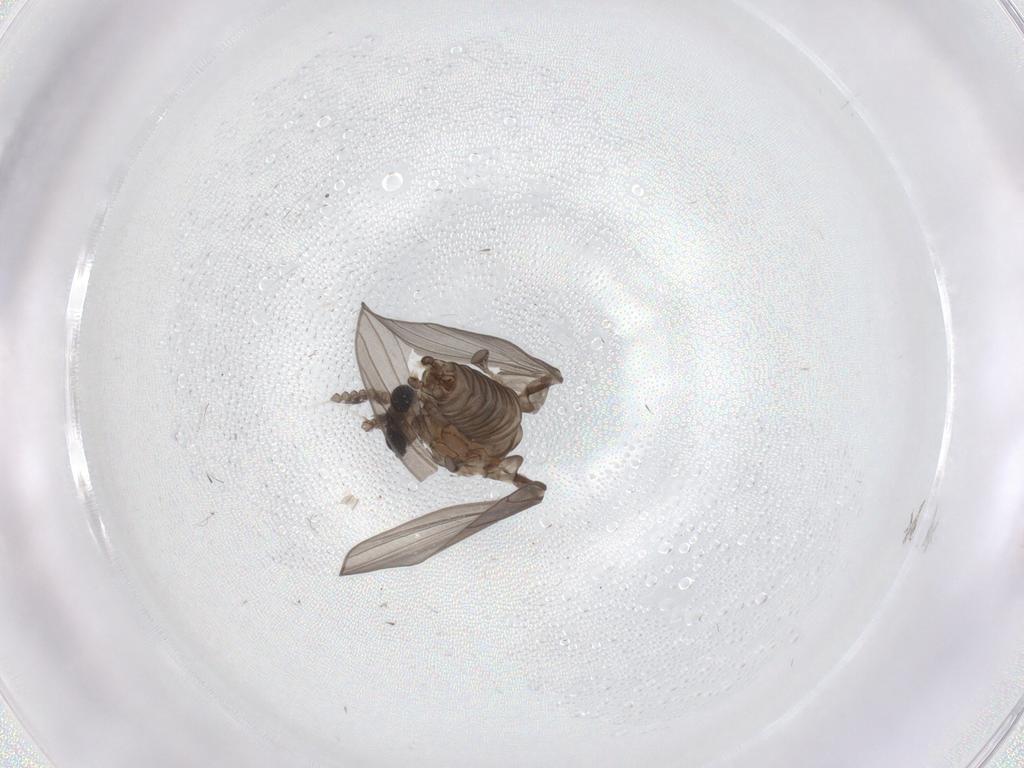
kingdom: Animalia
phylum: Arthropoda
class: Insecta
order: Diptera
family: Sciaridae
